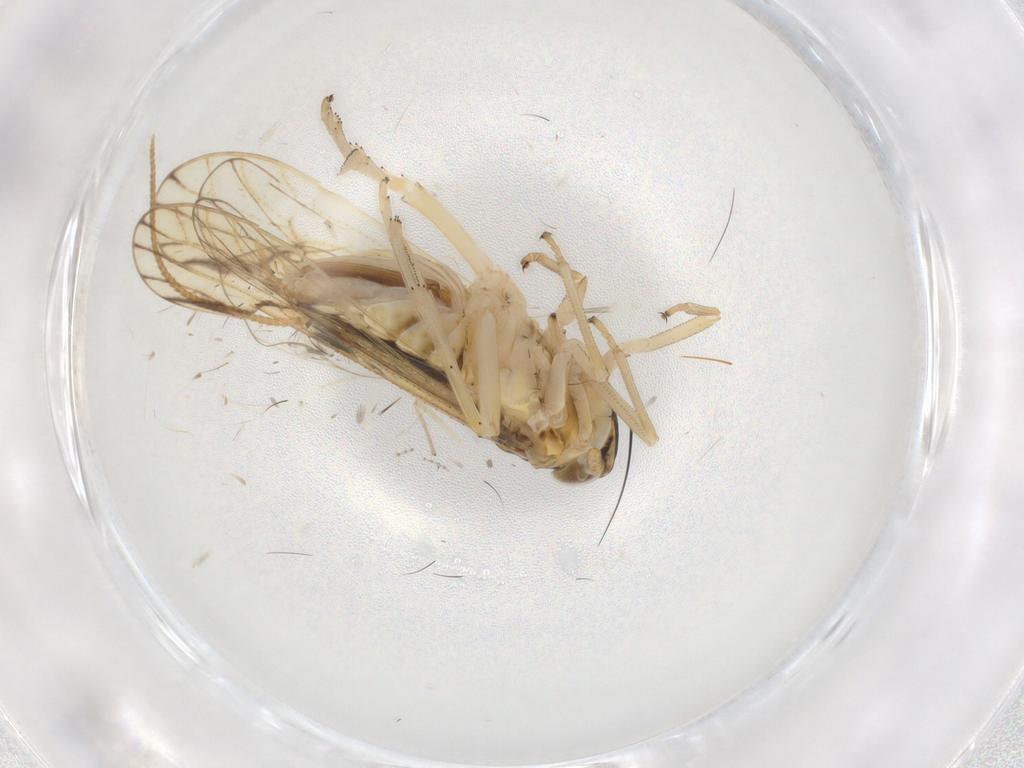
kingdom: Animalia
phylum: Arthropoda
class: Insecta
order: Hemiptera
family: Delphacidae
